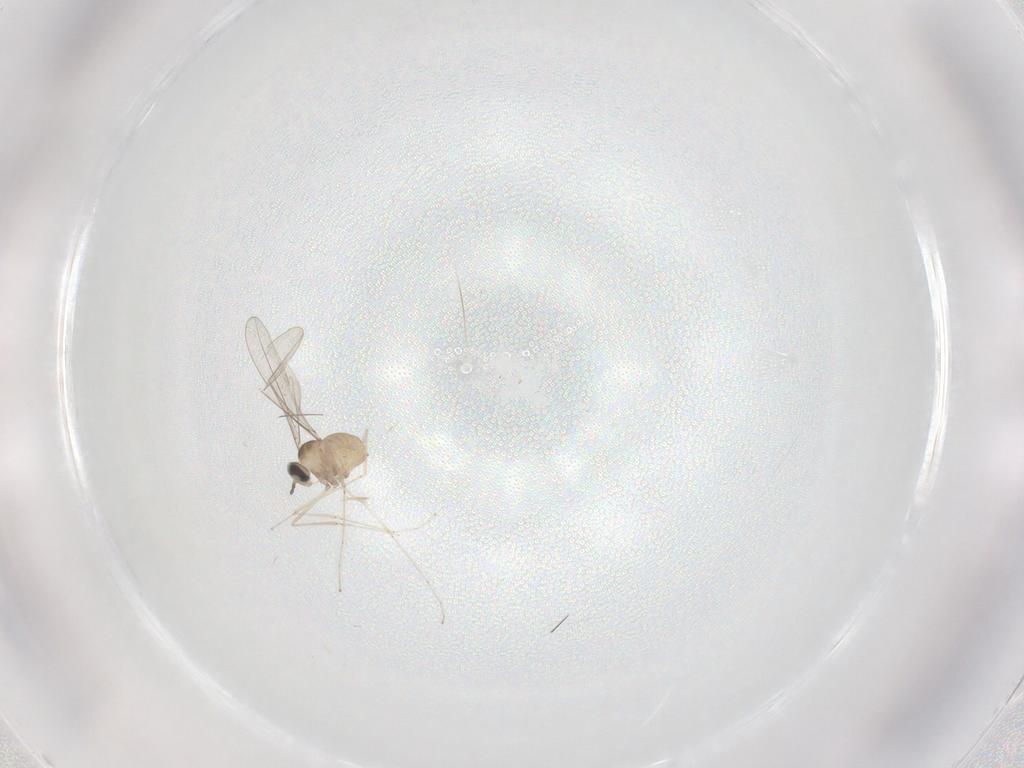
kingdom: Animalia
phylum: Arthropoda
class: Insecta
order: Diptera
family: Cecidomyiidae
